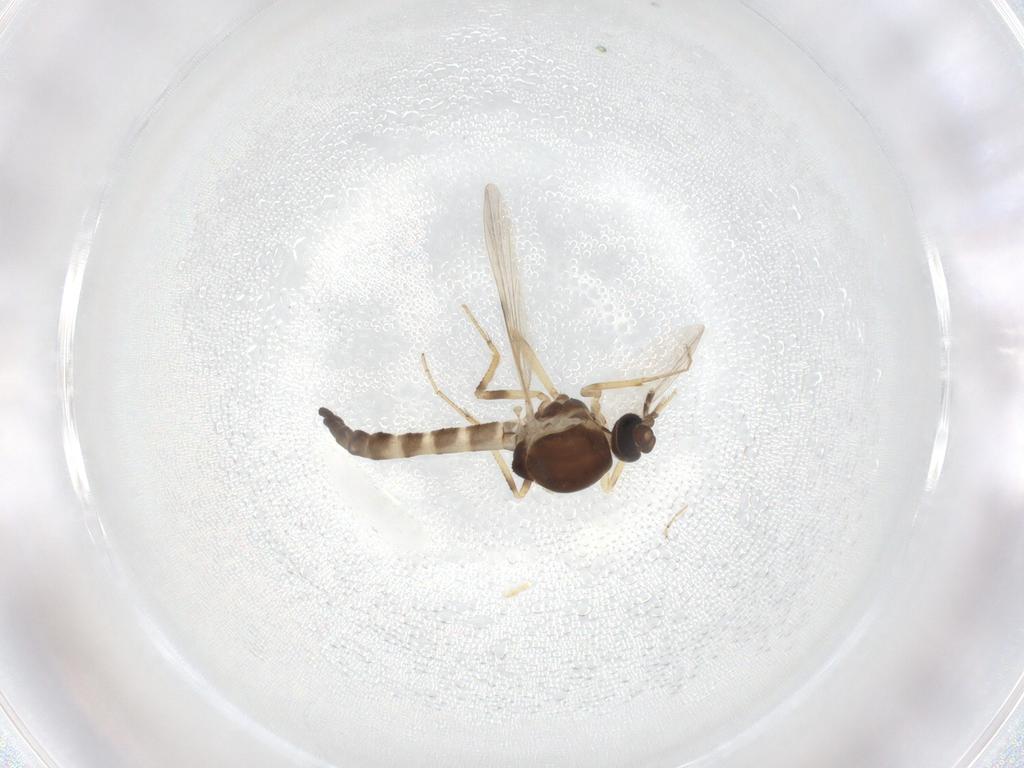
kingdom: Animalia
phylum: Arthropoda
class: Insecta
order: Diptera
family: Ceratopogonidae
